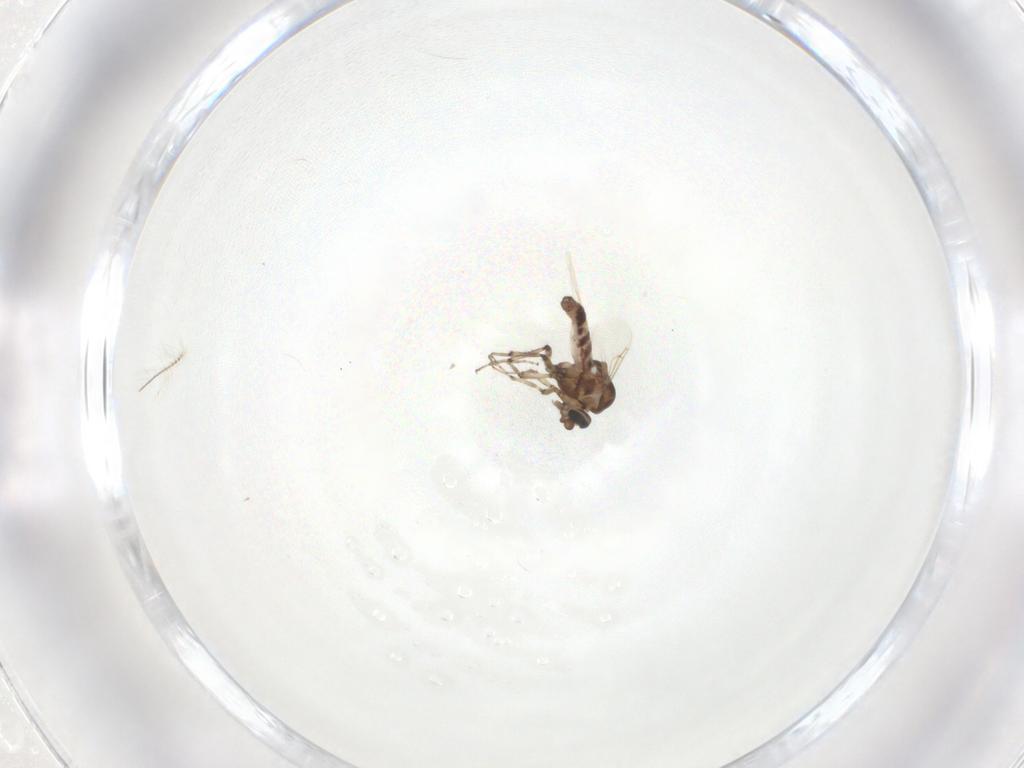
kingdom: Animalia
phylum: Arthropoda
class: Insecta
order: Diptera
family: Ceratopogonidae
